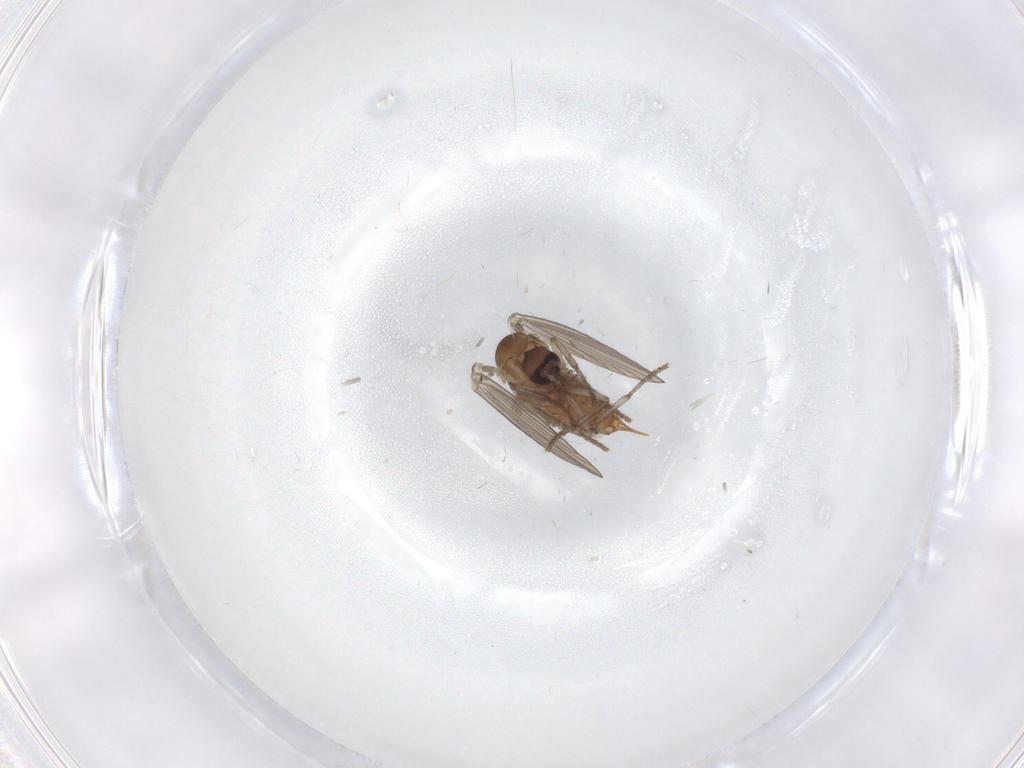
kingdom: Animalia
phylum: Arthropoda
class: Insecta
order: Diptera
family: Psychodidae
